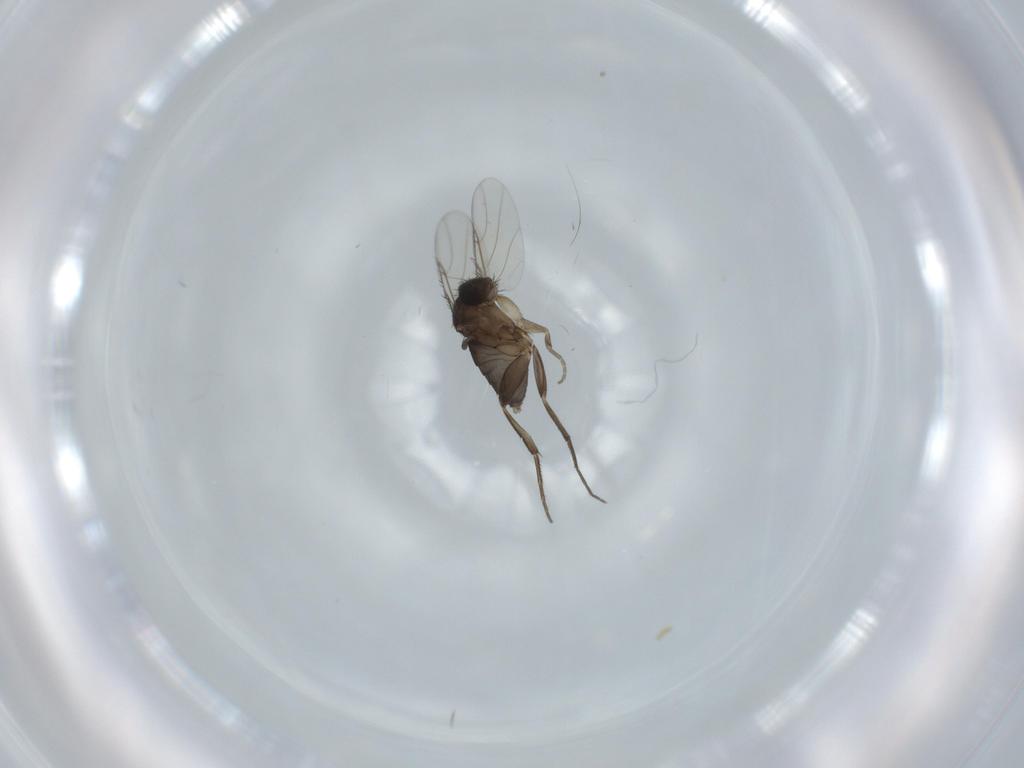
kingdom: Animalia
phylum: Arthropoda
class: Insecta
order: Diptera
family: Phoridae
